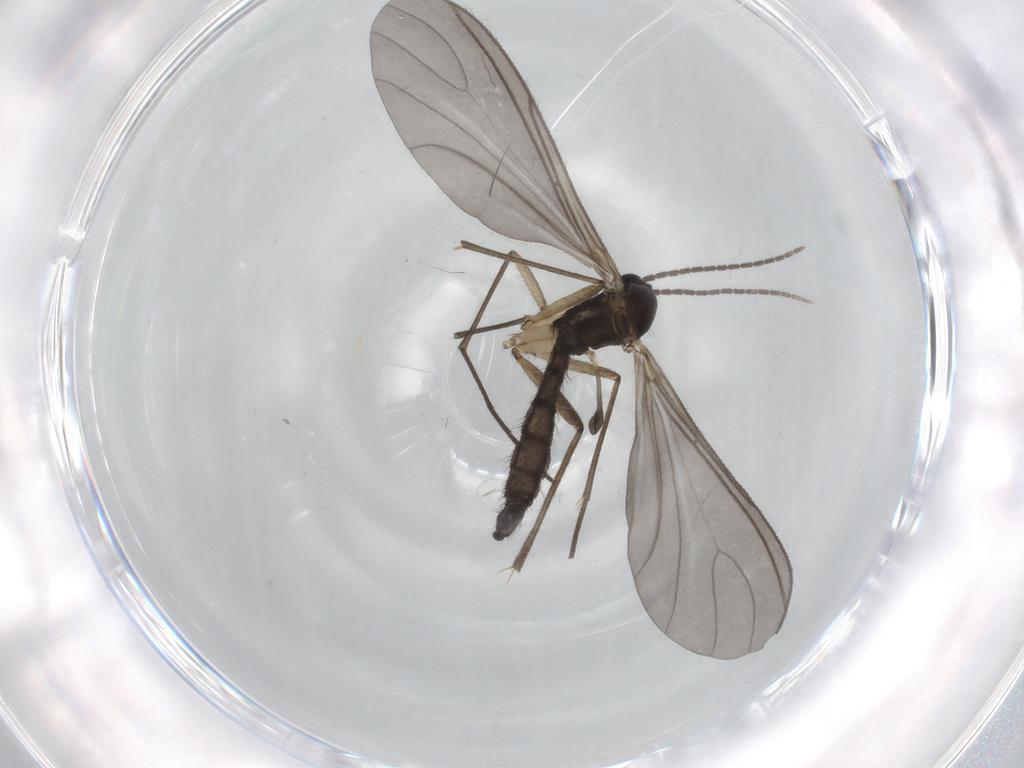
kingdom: Animalia
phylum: Arthropoda
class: Insecta
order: Diptera
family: Sciaridae
